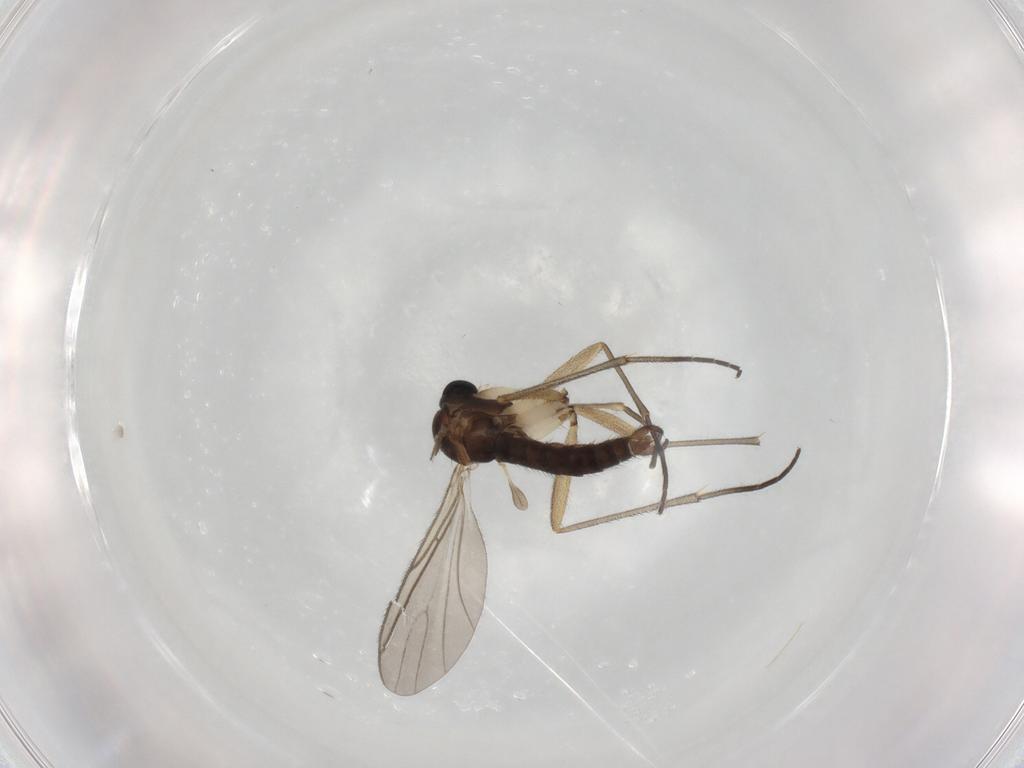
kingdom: Animalia
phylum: Arthropoda
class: Insecta
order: Diptera
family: Sciaridae
